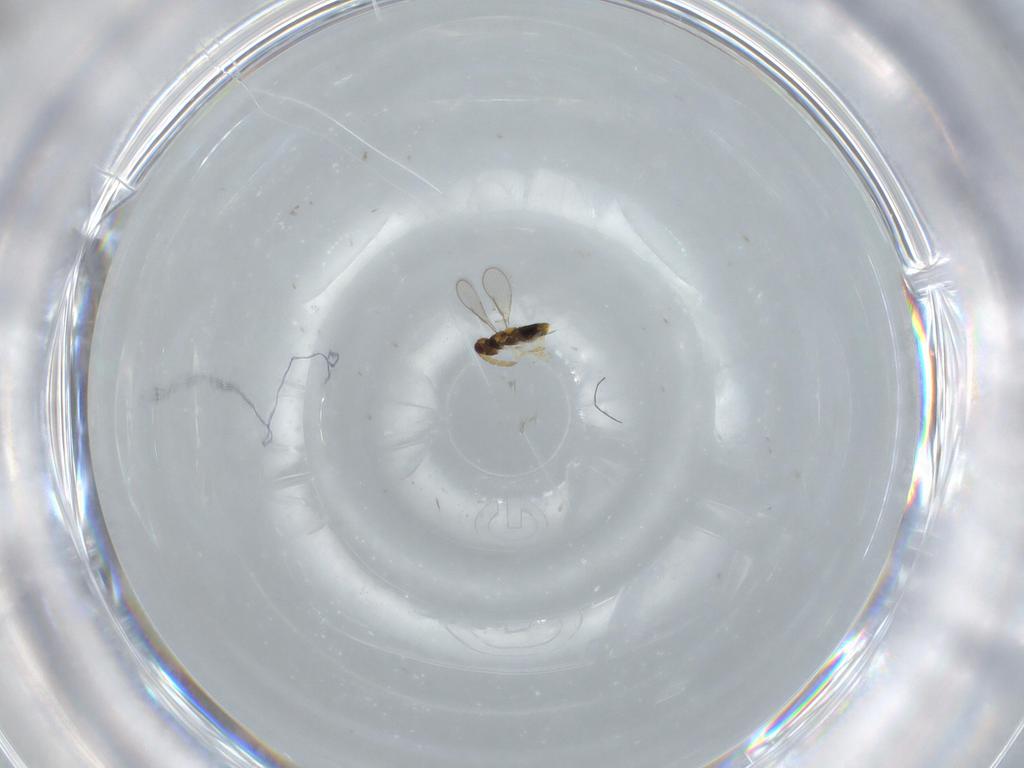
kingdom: Animalia
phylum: Arthropoda
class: Insecta
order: Hymenoptera
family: Aphelinidae
